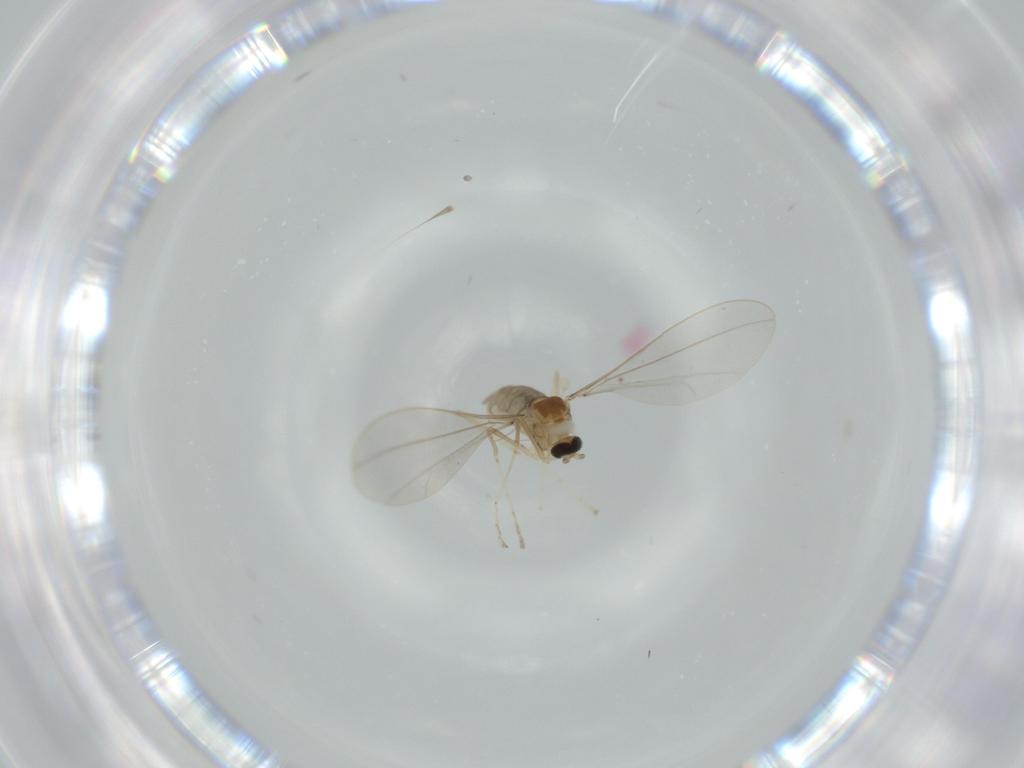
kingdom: Animalia
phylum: Arthropoda
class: Insecta
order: Diptera
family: Cecidomyiidae
